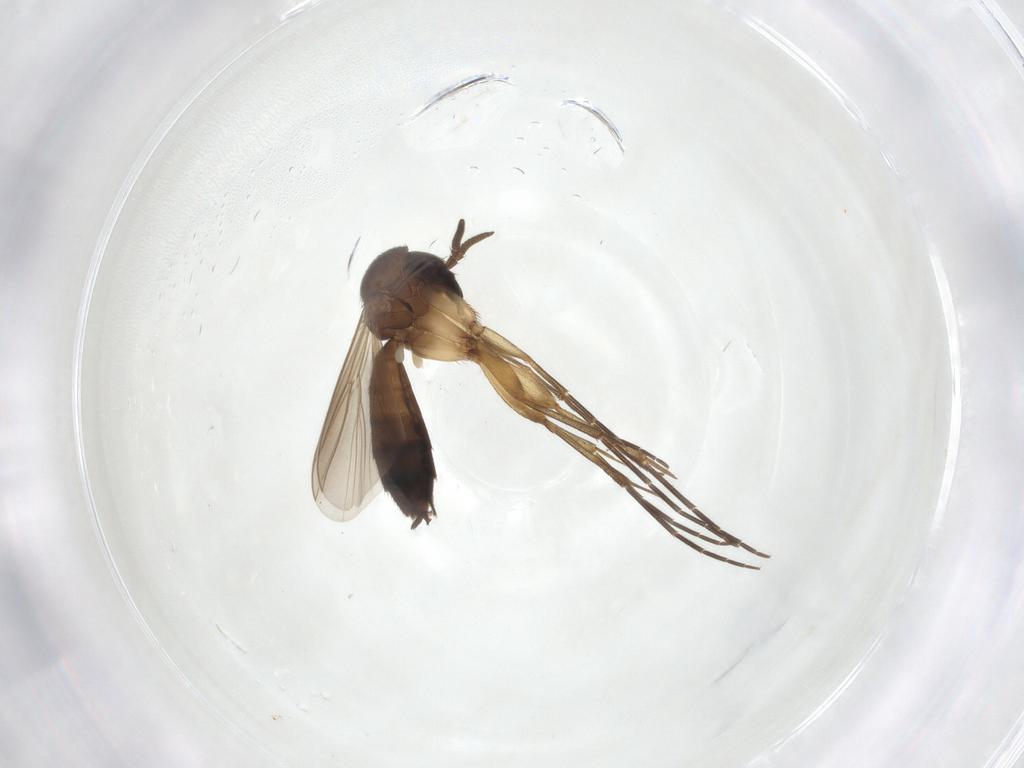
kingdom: Animalia
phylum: Arthropoda
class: Insecta
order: Diptera
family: Mycetophilidae
